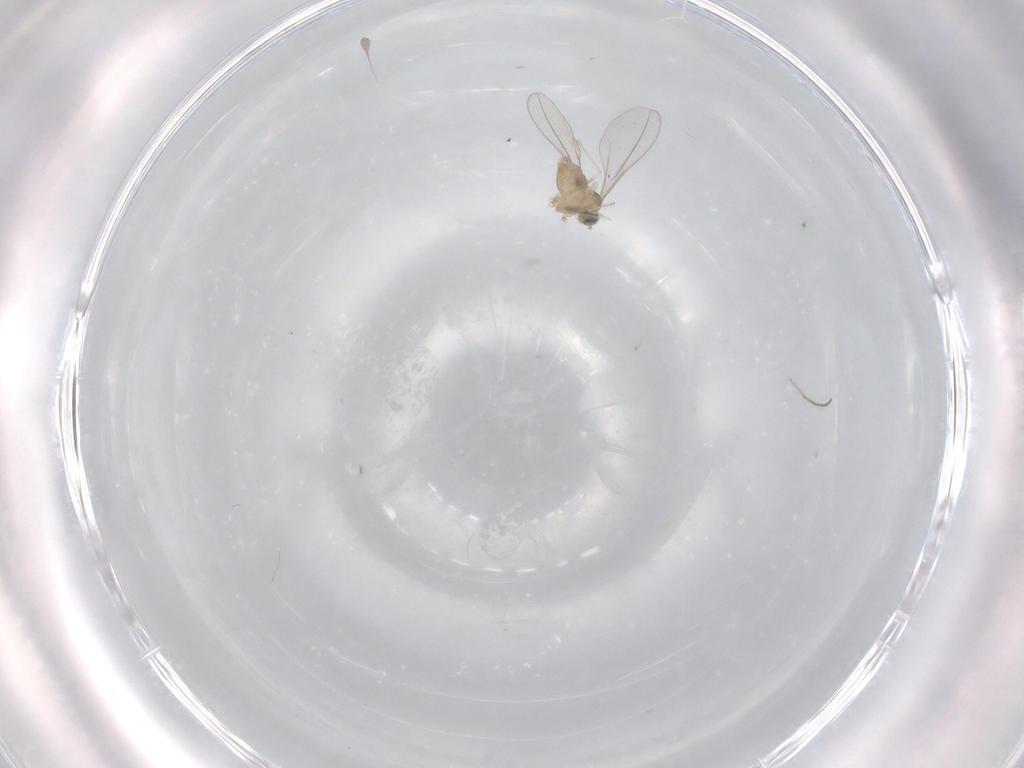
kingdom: Animalia
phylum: Arthropoda
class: Insecta
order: Diptera
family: Cecidomyiidae
